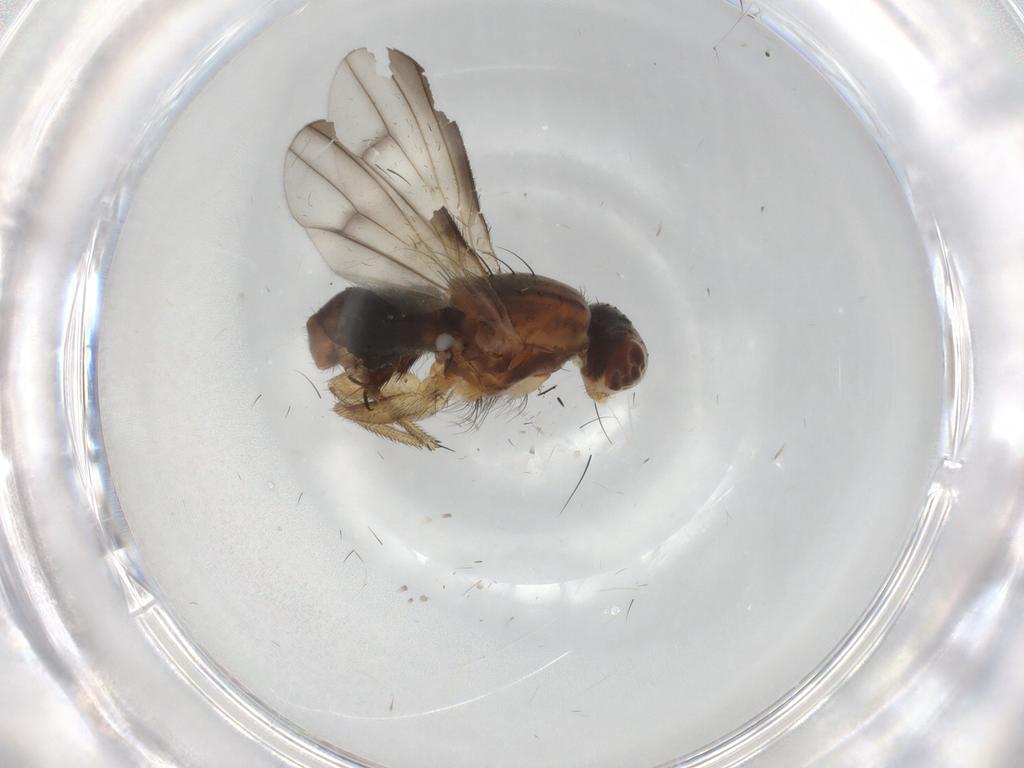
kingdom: Animalia
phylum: Arthropoda
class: Insecta
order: Diptera
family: Heleomyzidae
